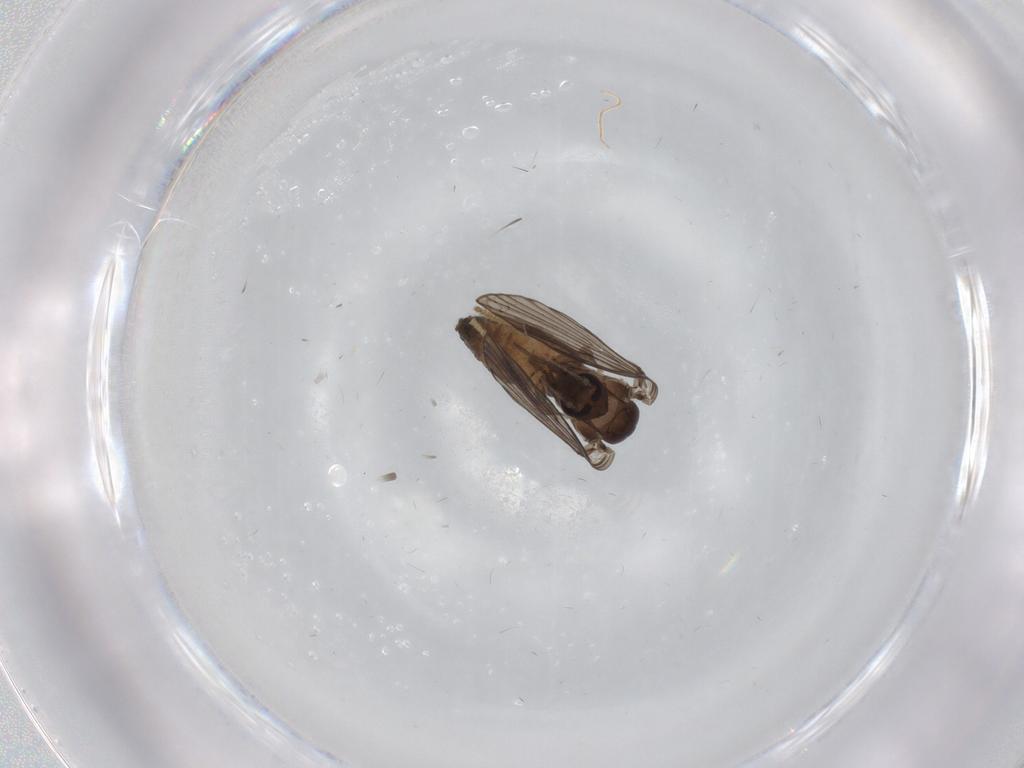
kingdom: Animalia
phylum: Arthropoda
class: Insecta
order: Diptera
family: Psychodidae
